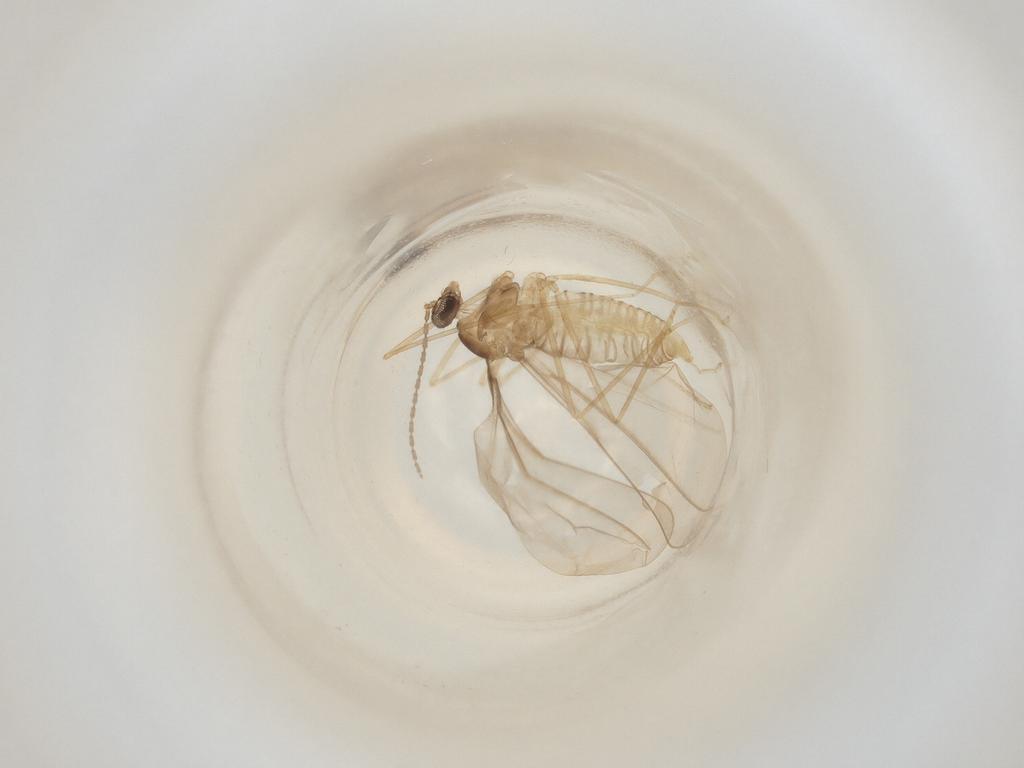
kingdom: Animalia
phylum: Arthropoda
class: Insecta
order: Diptera
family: Cecidomyiidae
